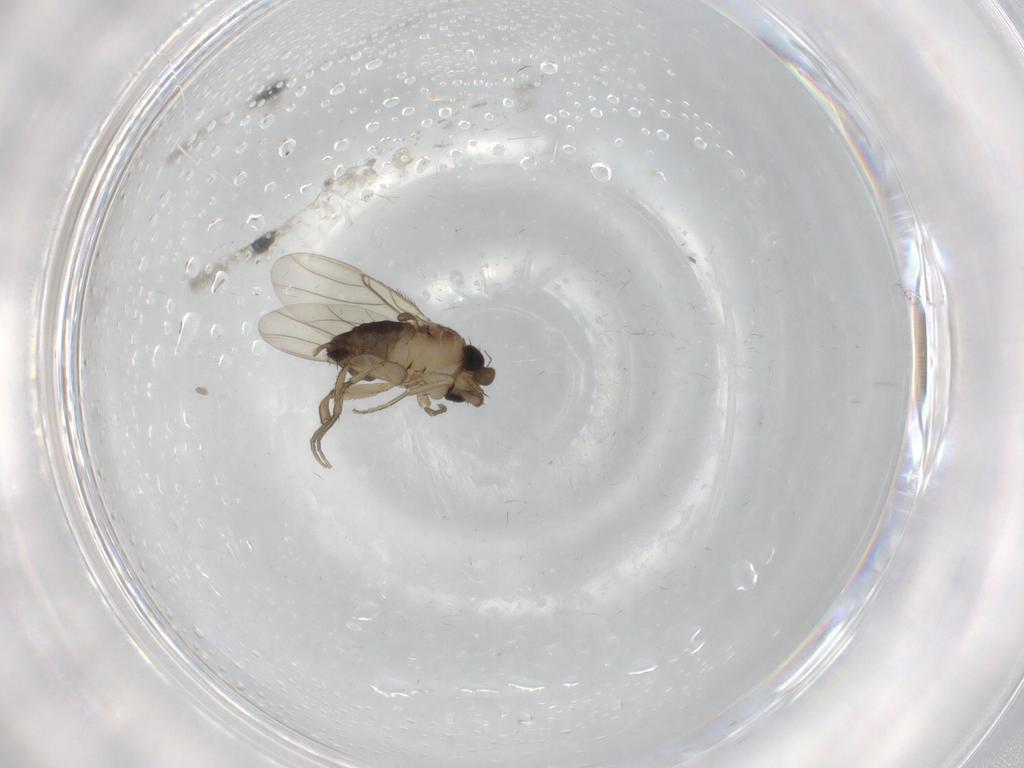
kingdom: Animalia
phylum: Arthropoda
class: Insecta
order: Diptera
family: Phoridae
